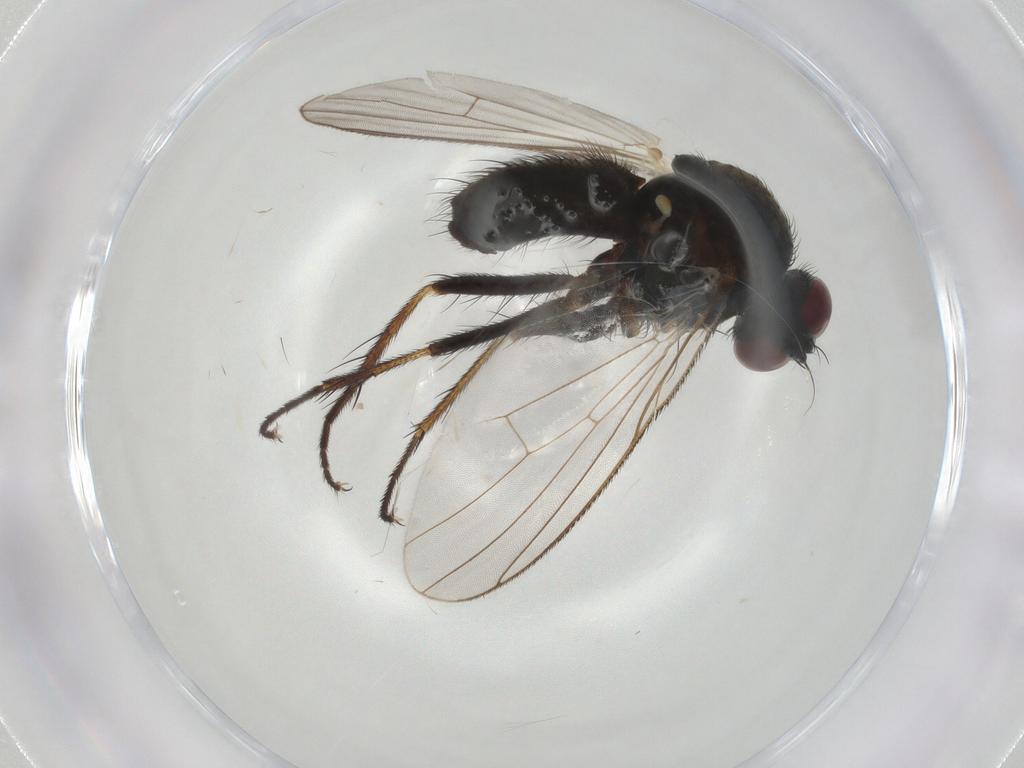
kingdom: Animalia
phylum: Arthropoda
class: Insecta
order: Diptera
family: Muscidae
